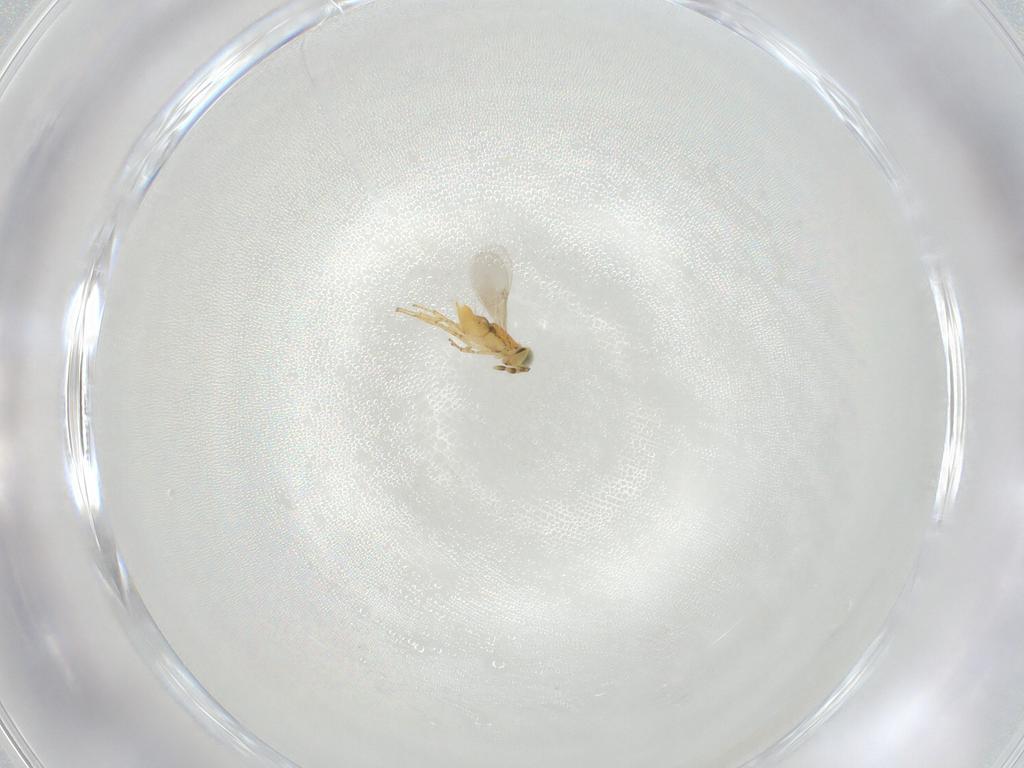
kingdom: Animalia
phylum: Arthropoda
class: Insecta
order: Hymenoptera
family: Encyrtidae
